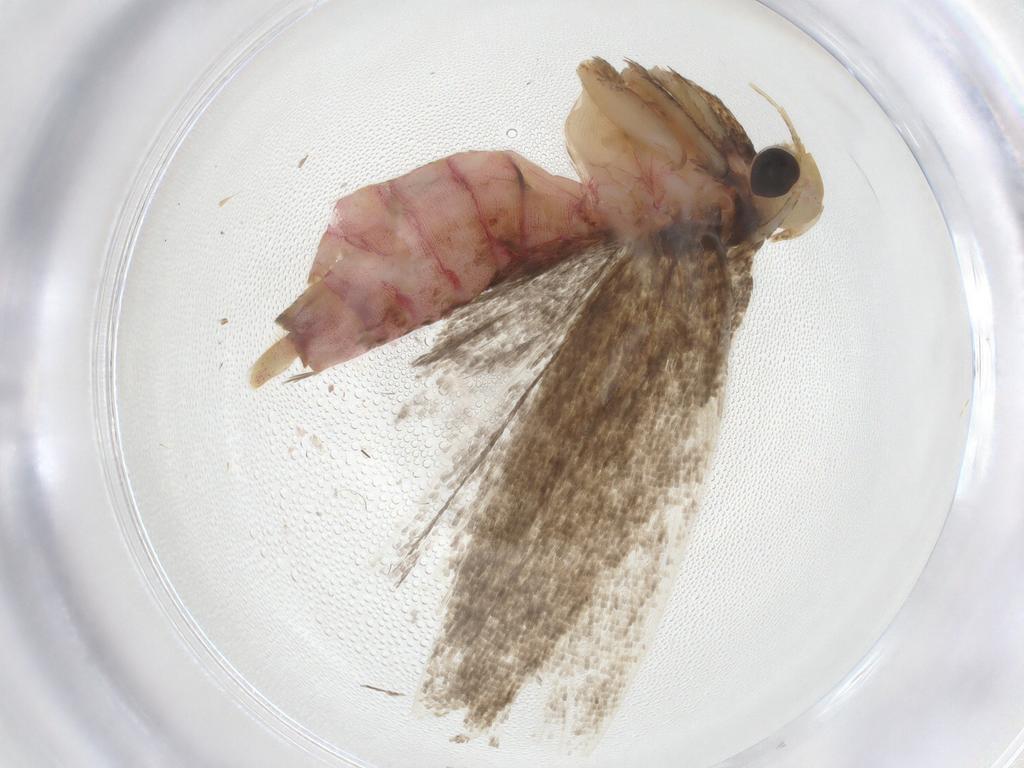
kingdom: Animalia
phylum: Arthropoda
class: Insecta
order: Lepidoptera
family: Autostichidae
